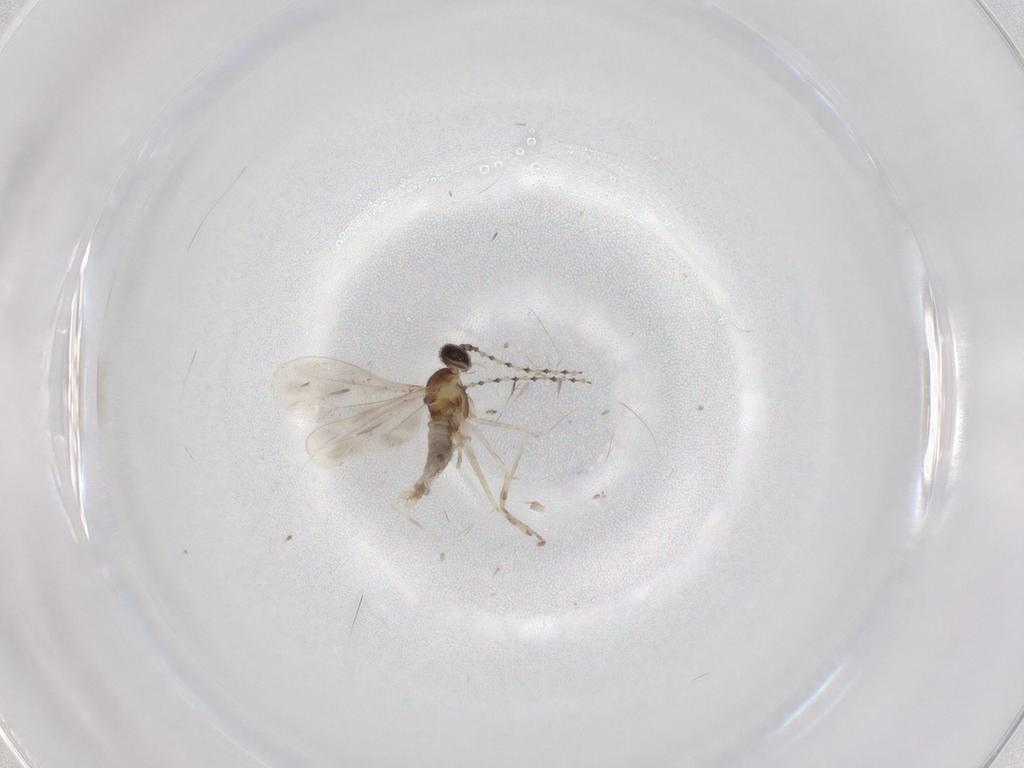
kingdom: Animalia
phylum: Arthropoda
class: Insecta
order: Diptera
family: Cecidomyiidae
